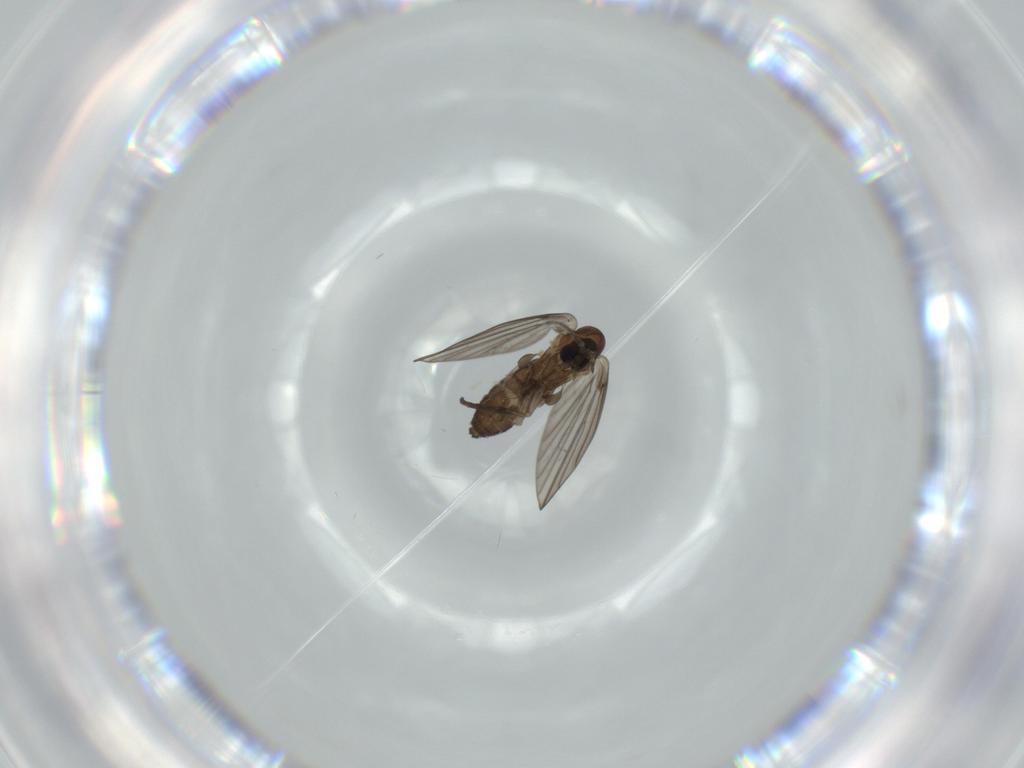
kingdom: Animalia
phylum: Arthropoda
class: Insecta
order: Diptera
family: Psychodidae
